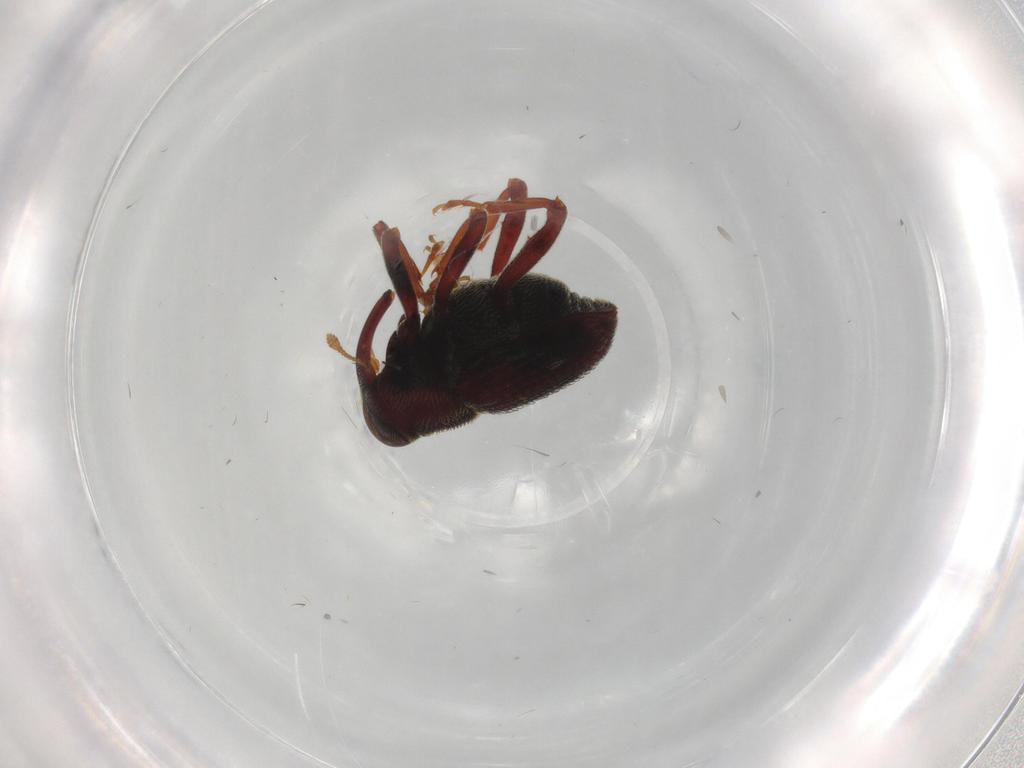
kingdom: Animalia
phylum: Arthropoda
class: Insecta
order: Coleoptera
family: Curculionidae
